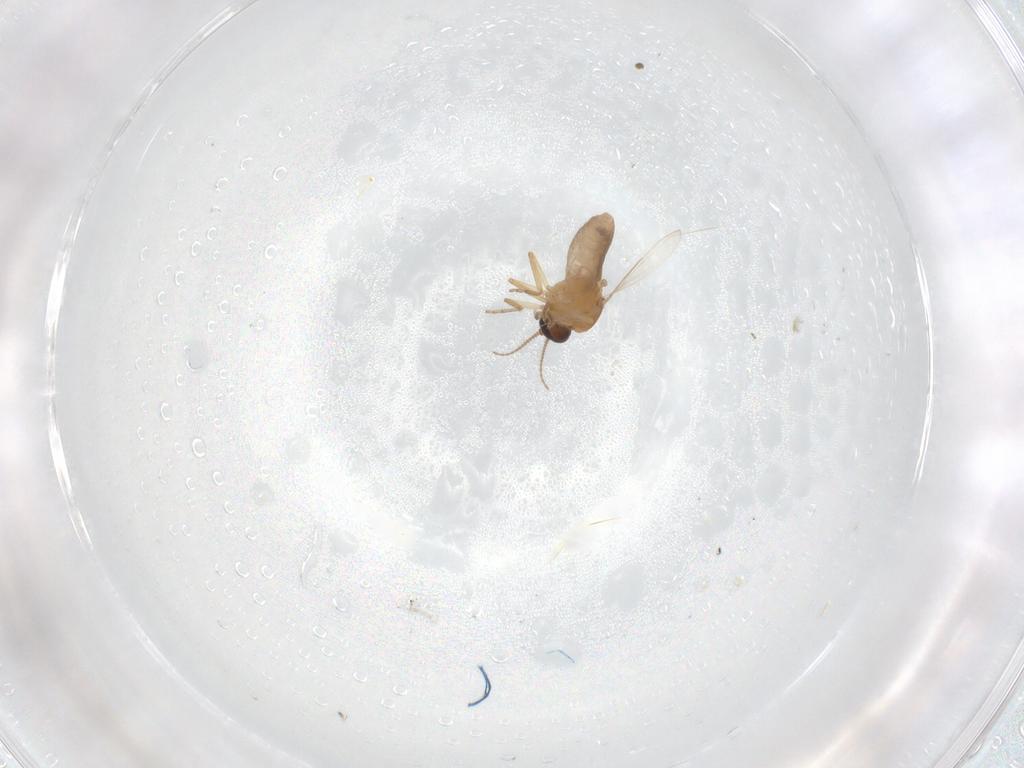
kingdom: Animalia
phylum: Arthropoda
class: Insecta
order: Diptera
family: Ceratopogonidae
